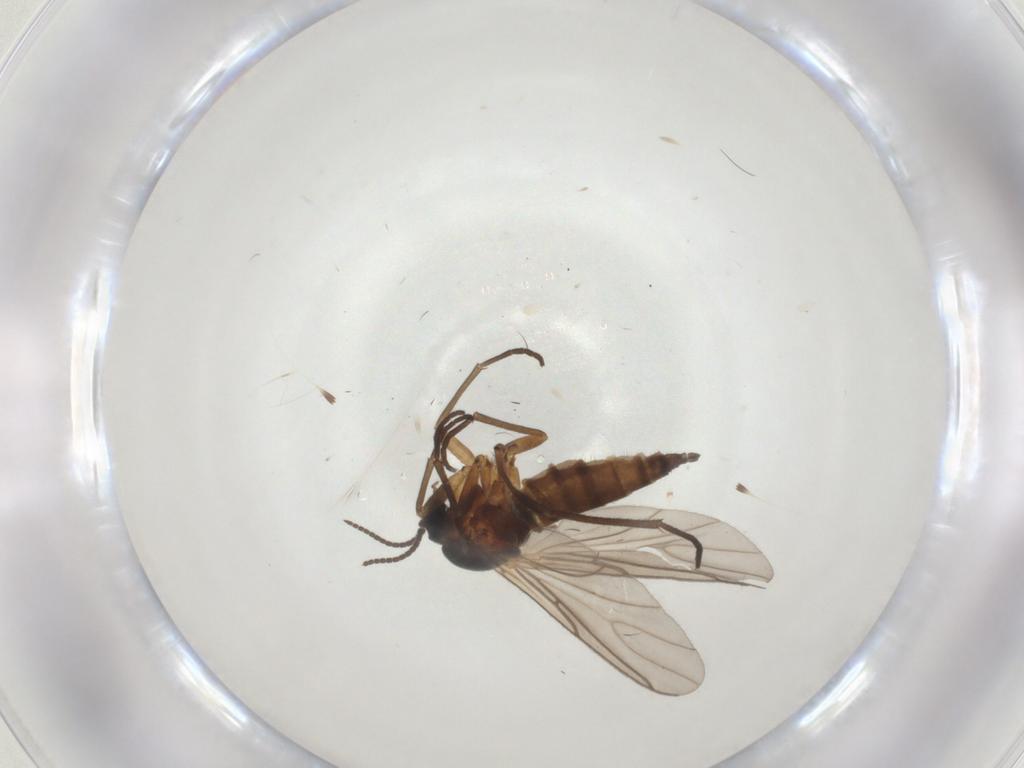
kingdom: Animalia
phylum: Arthropoda
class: Insecta
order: Diptera
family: Sciaridae
